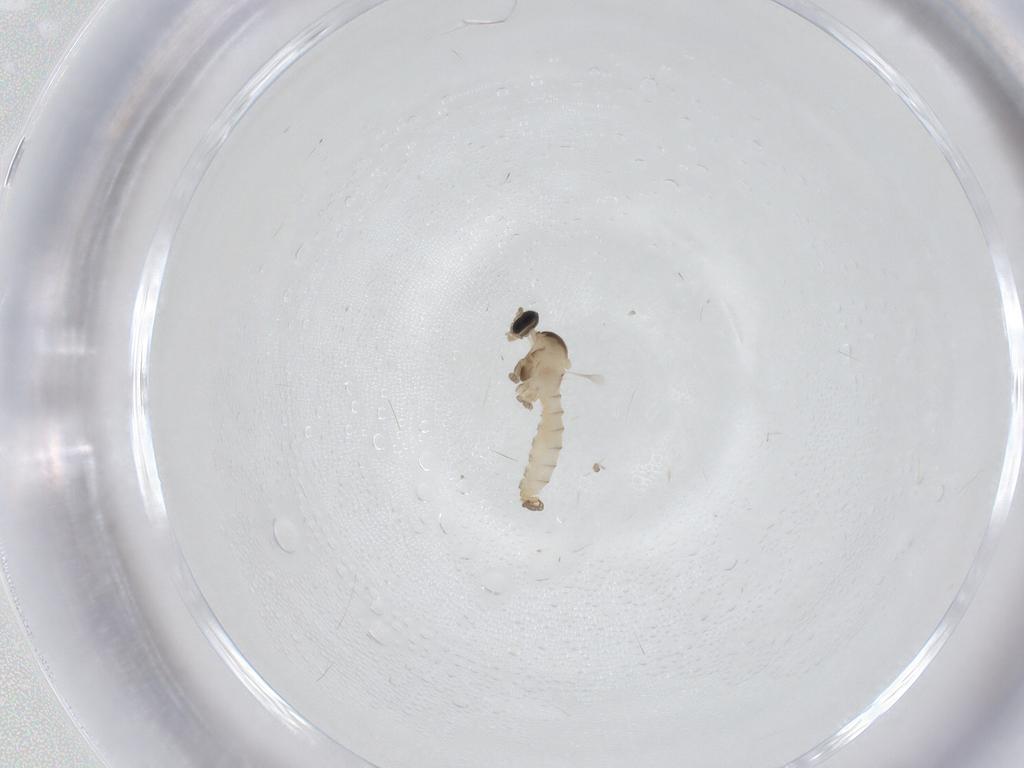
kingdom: Animalia
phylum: Arthropoda
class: Insecta
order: Diptera
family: Cecidomyiidae
